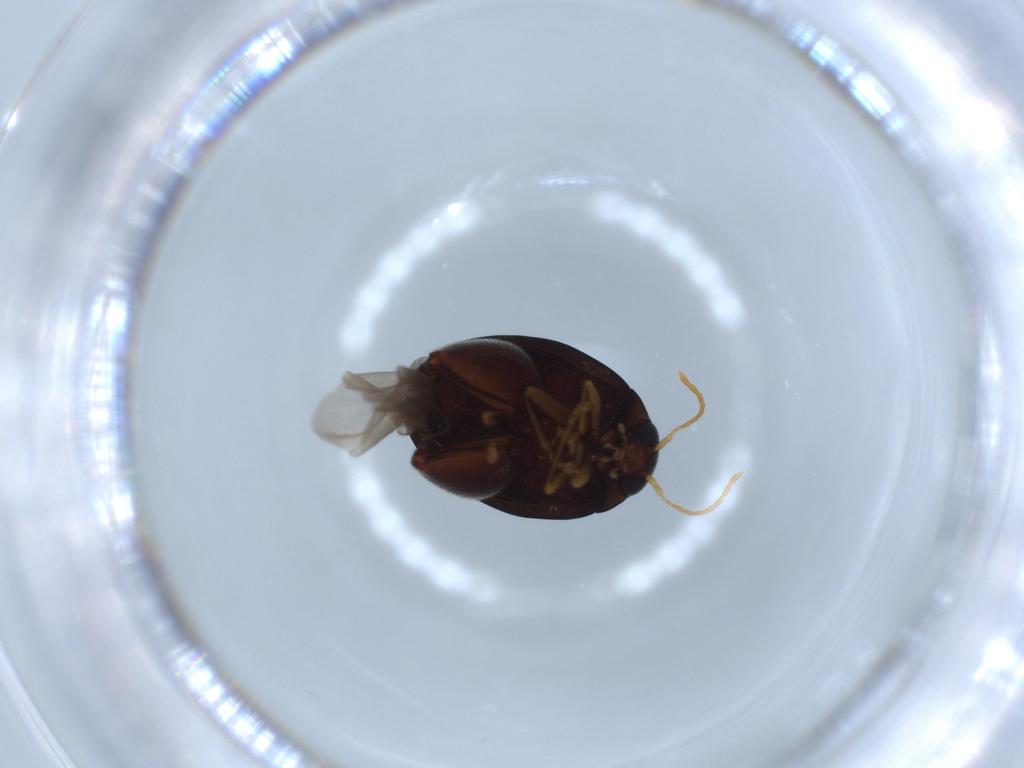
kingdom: Animalia
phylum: Arthropoda
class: Insecta
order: Coleoptera
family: Chrysomelidae
